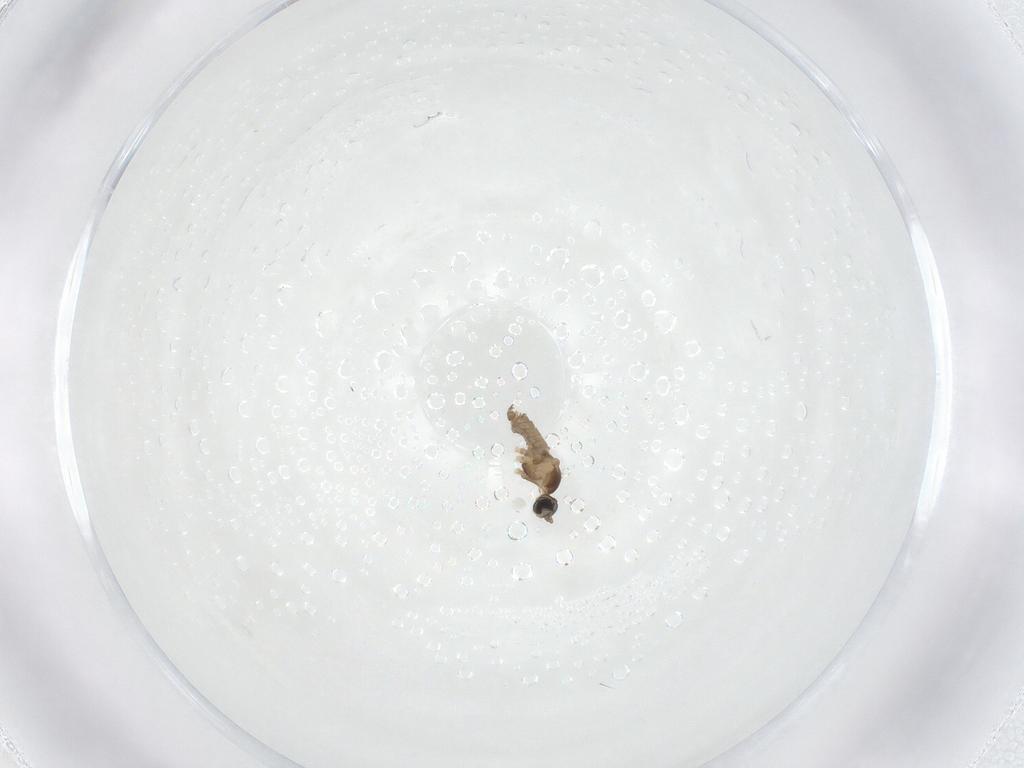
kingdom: Animalia
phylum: Arthropoda
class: Insecta
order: Diptera
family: Cecidomyiidae
